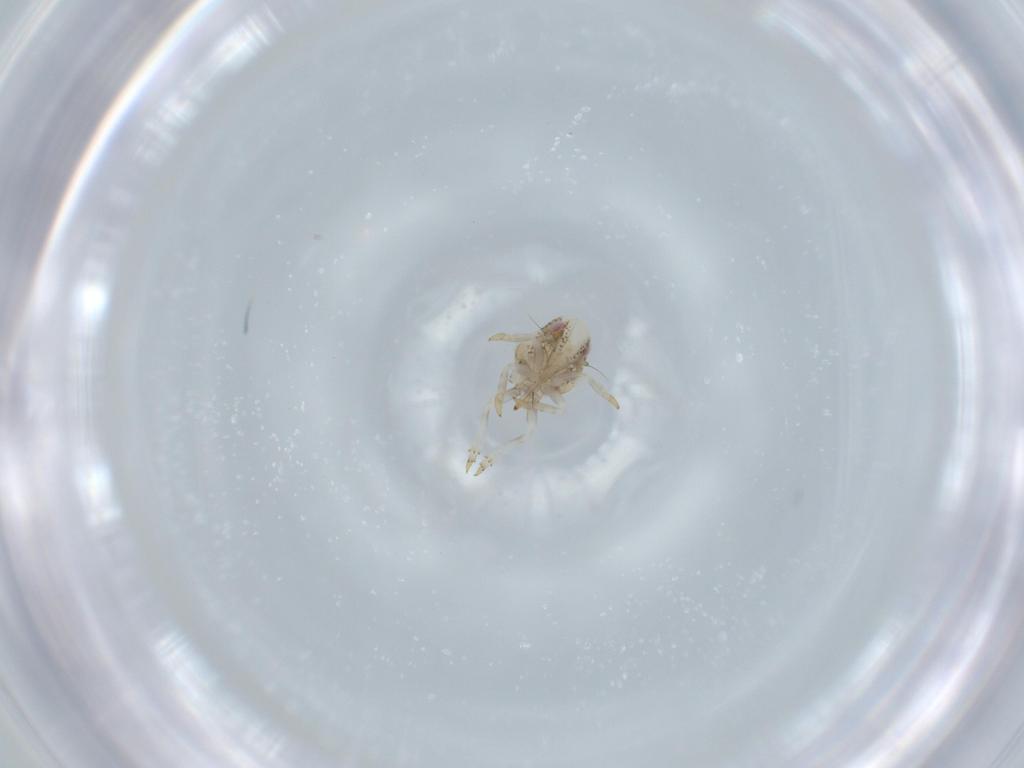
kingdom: Animalia
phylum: Arthropoda
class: Insecta
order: Hemiptera
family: Acanaloniidae
